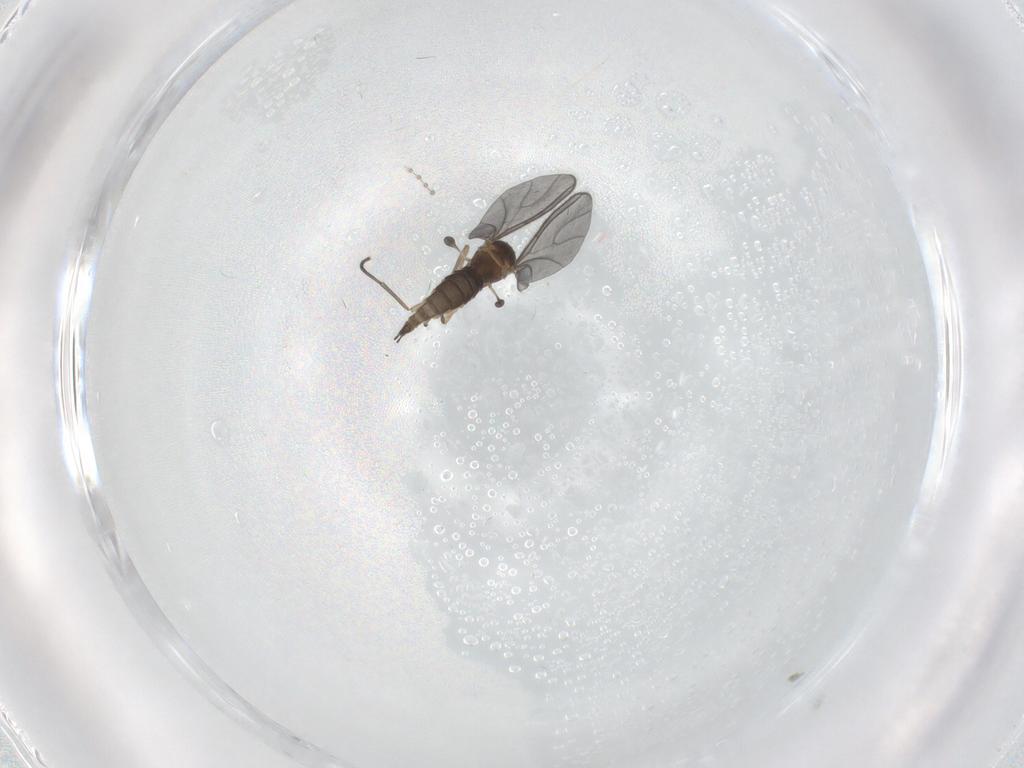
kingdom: Animalia
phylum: Arthropoda
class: Insecta
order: Diptera
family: Sciaridae
